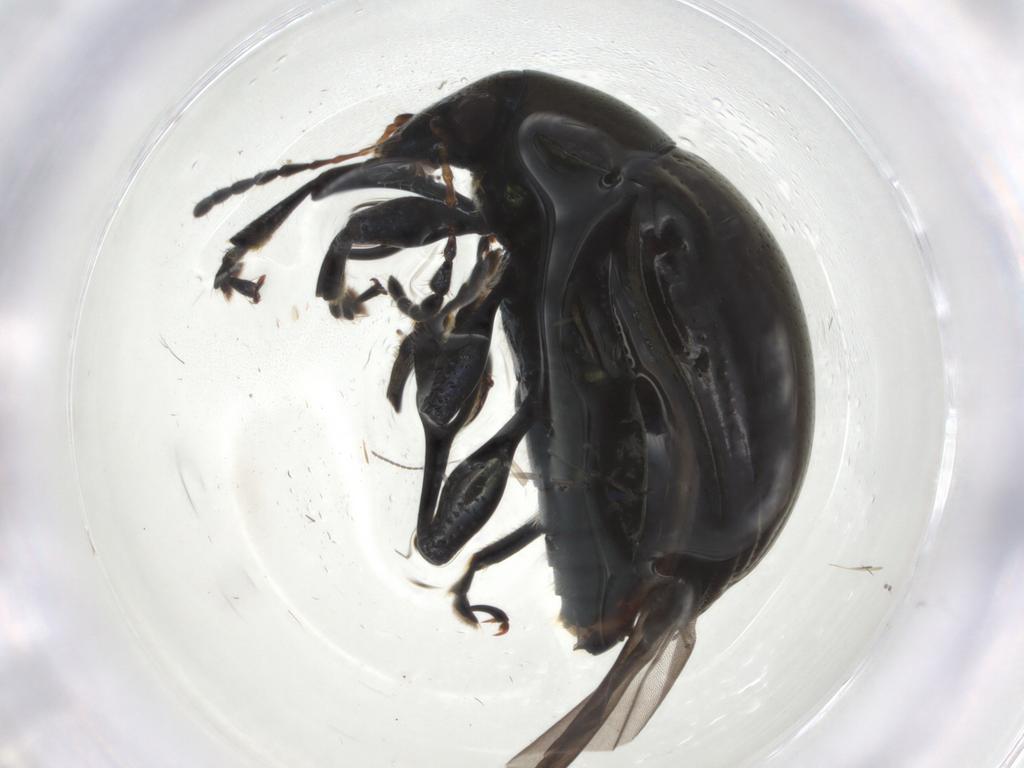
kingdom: Animalia
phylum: Arthropoda
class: Insecta
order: Coleoptera
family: Chrysomelidae
